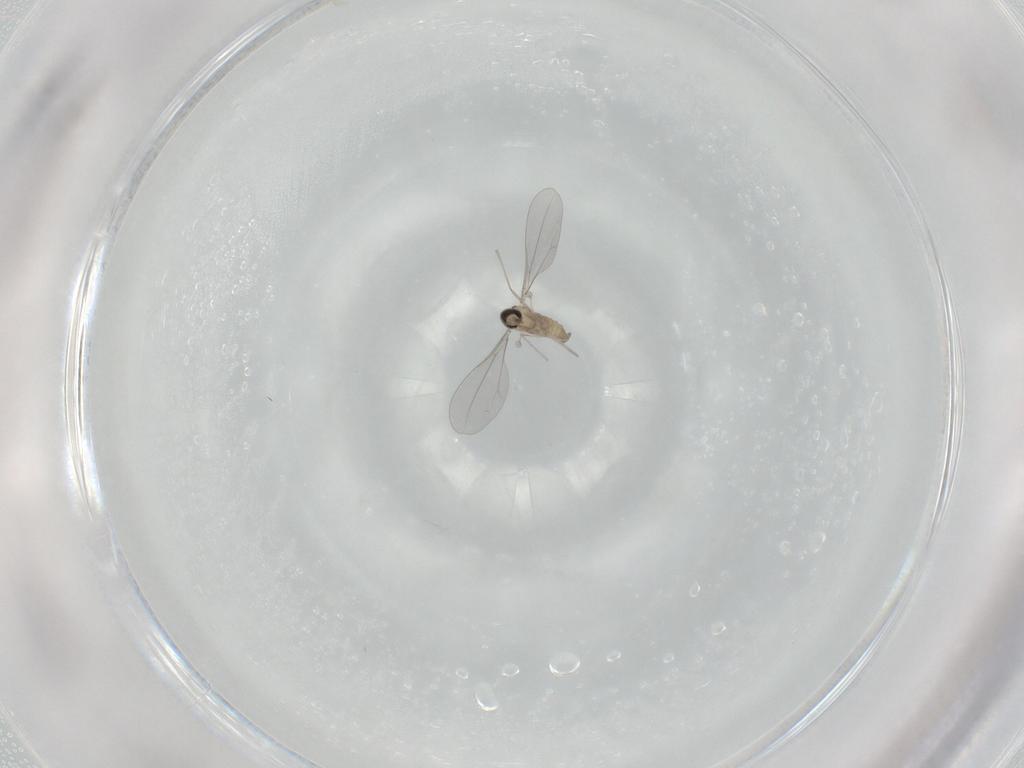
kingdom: Animalia
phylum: Arthropoda
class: Insecta
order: Diptera
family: Cecidomyiidae
